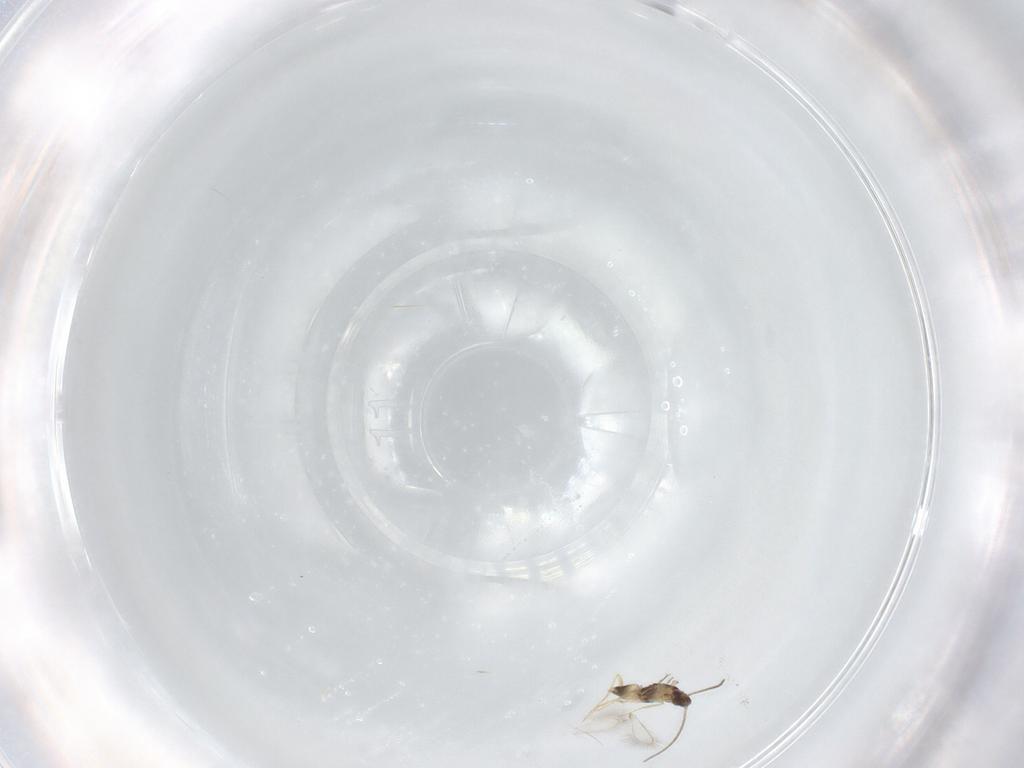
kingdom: Animalia
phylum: Arthropoda
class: Insecta
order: Hymenoptera
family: Mymaridae
